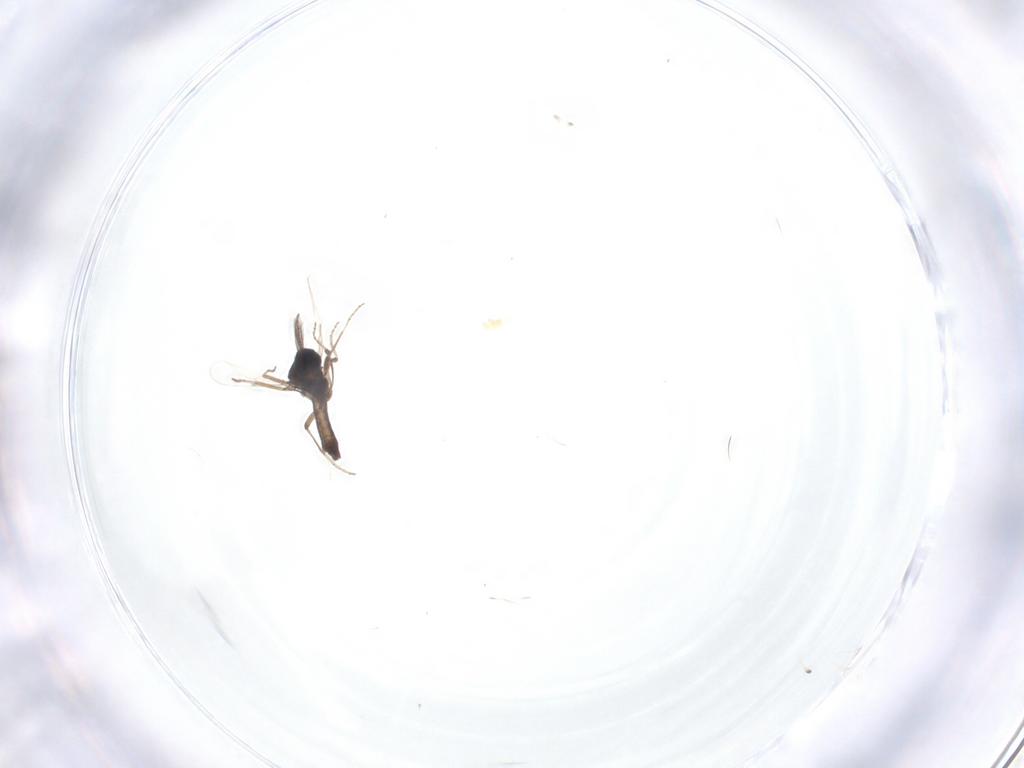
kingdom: Animalia
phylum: Arthropoda
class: Insecta
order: Diptera
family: Ceratopogonidae
